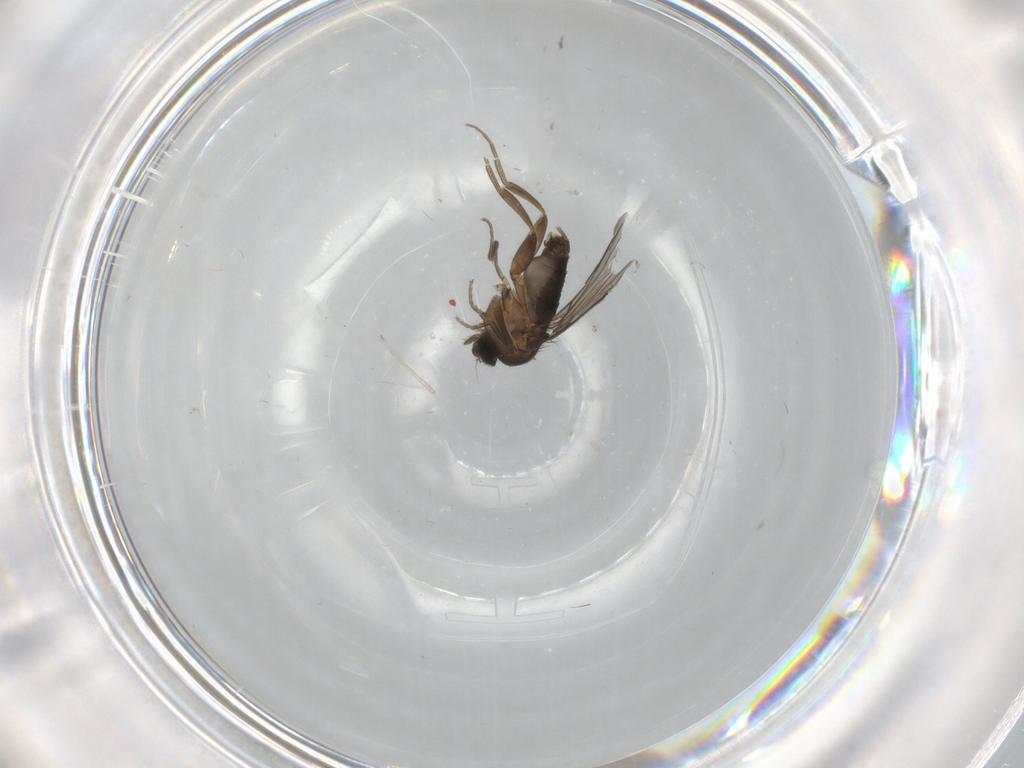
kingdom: Animalia
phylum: Arthropoda
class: Insecta
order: Diptera
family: Phoridae
